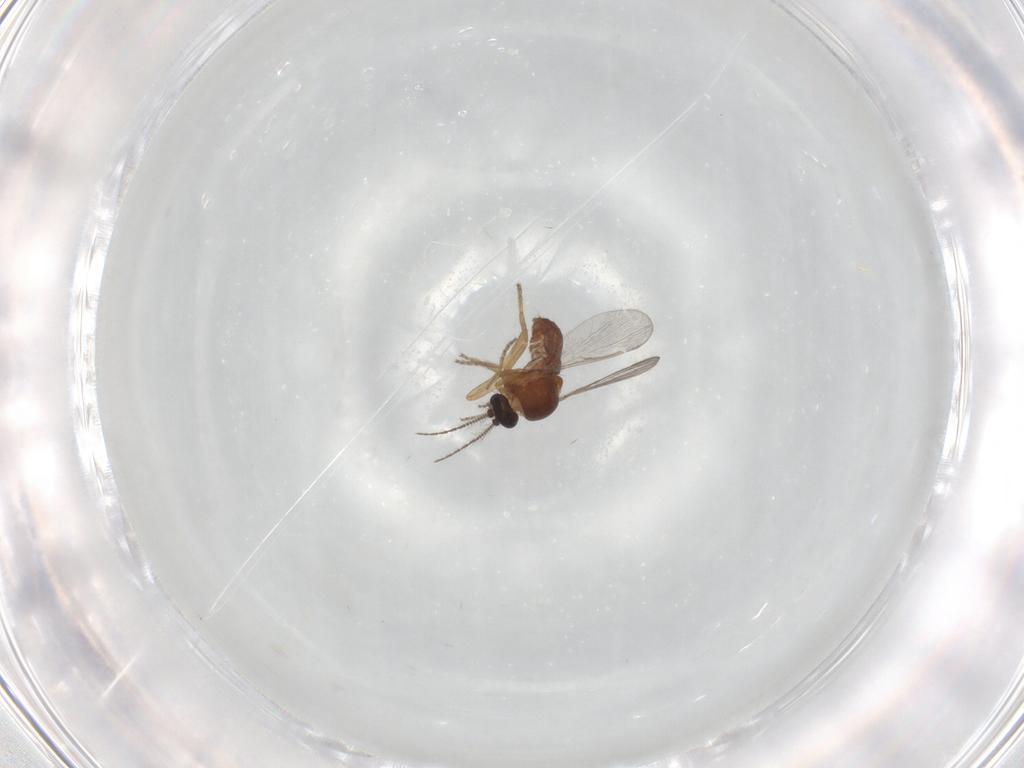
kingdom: Animalia
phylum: Arthropoda
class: Insecta
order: Diptera
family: Ceratopogonidae
